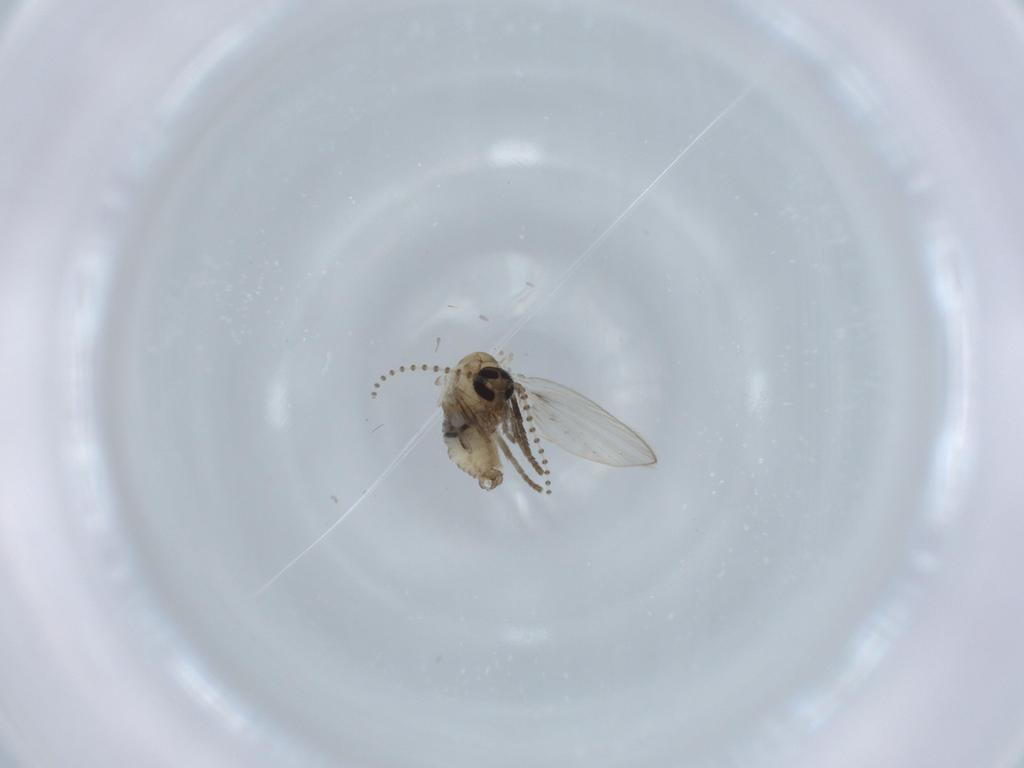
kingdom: Animalia
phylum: Arthropoda
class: Insecta
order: Diptera
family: Psychodidae
